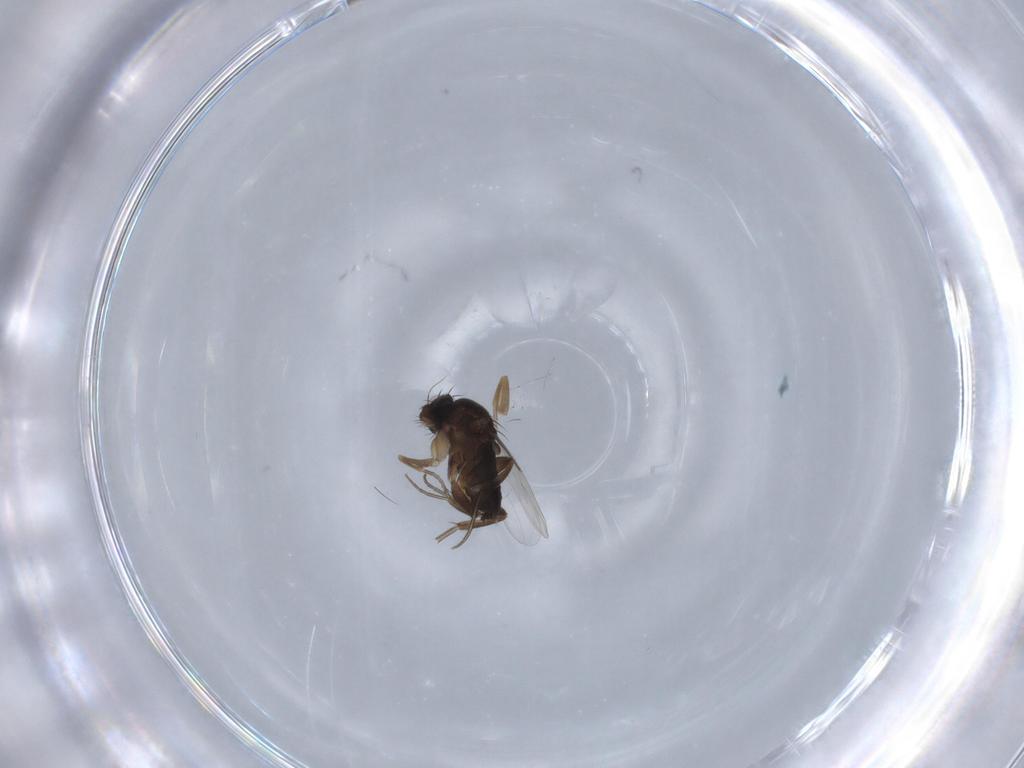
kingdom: Animalia
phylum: Arthropoda
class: Insecta
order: Diptera
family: Phoridae
